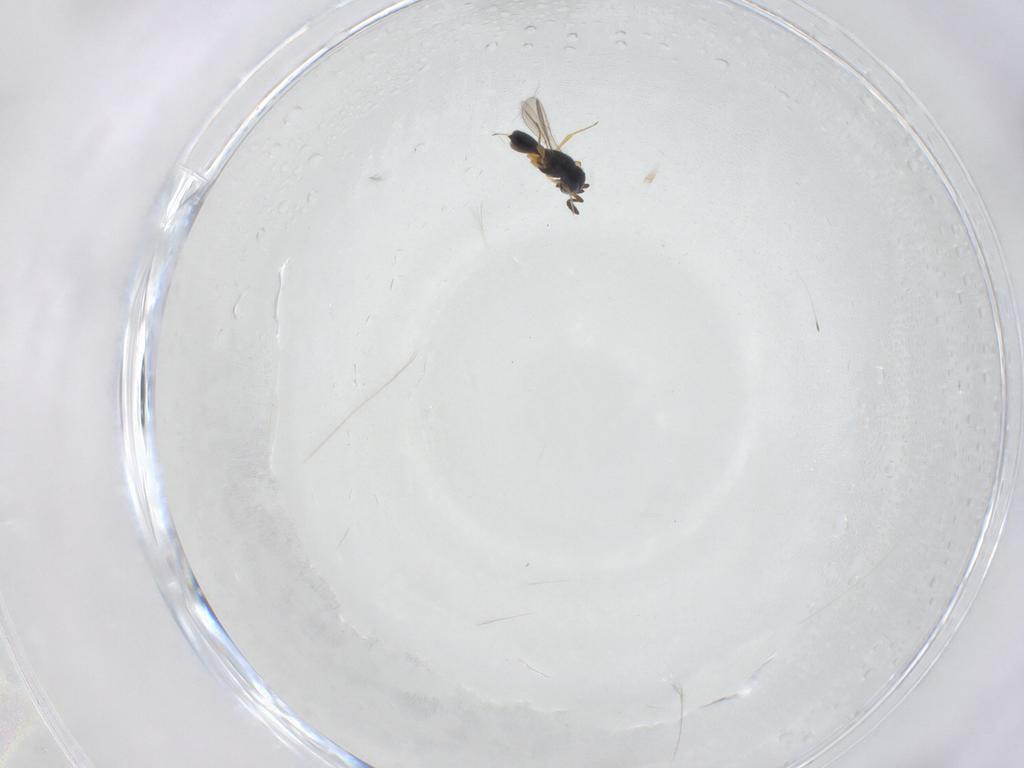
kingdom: Animalia
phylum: Arthropoda
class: Insecta
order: Hymenoptera
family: Scelionidae
